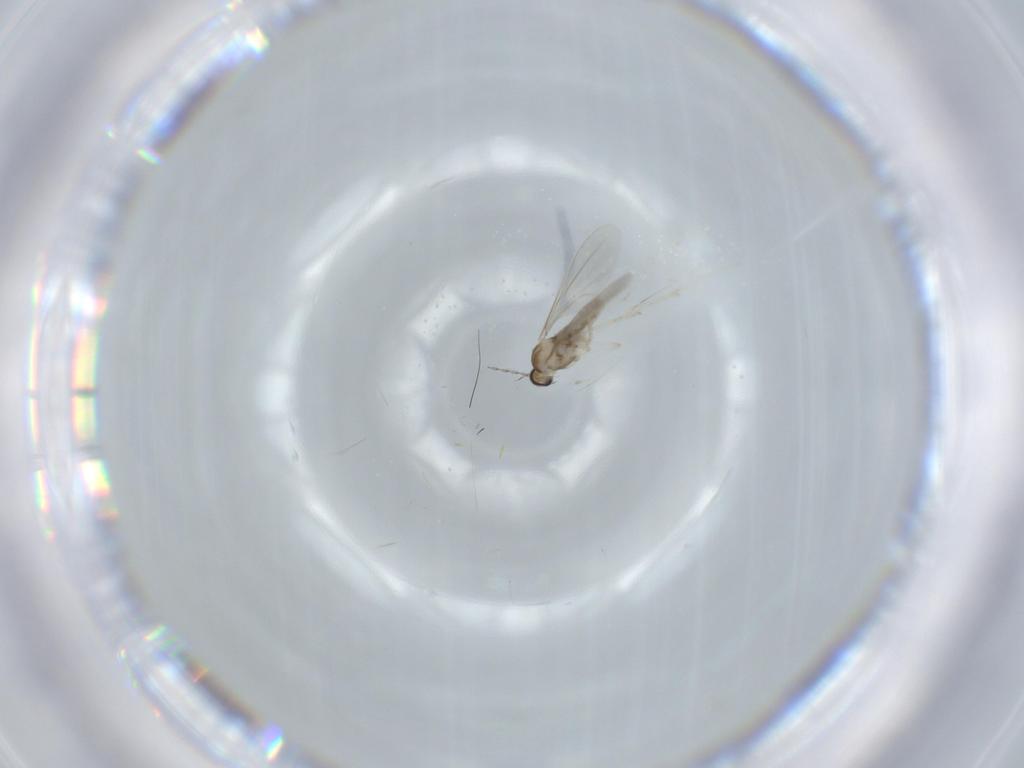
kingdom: Animalia
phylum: Arthropoda
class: Insecta
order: Diptera
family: Cecidomyiidae
